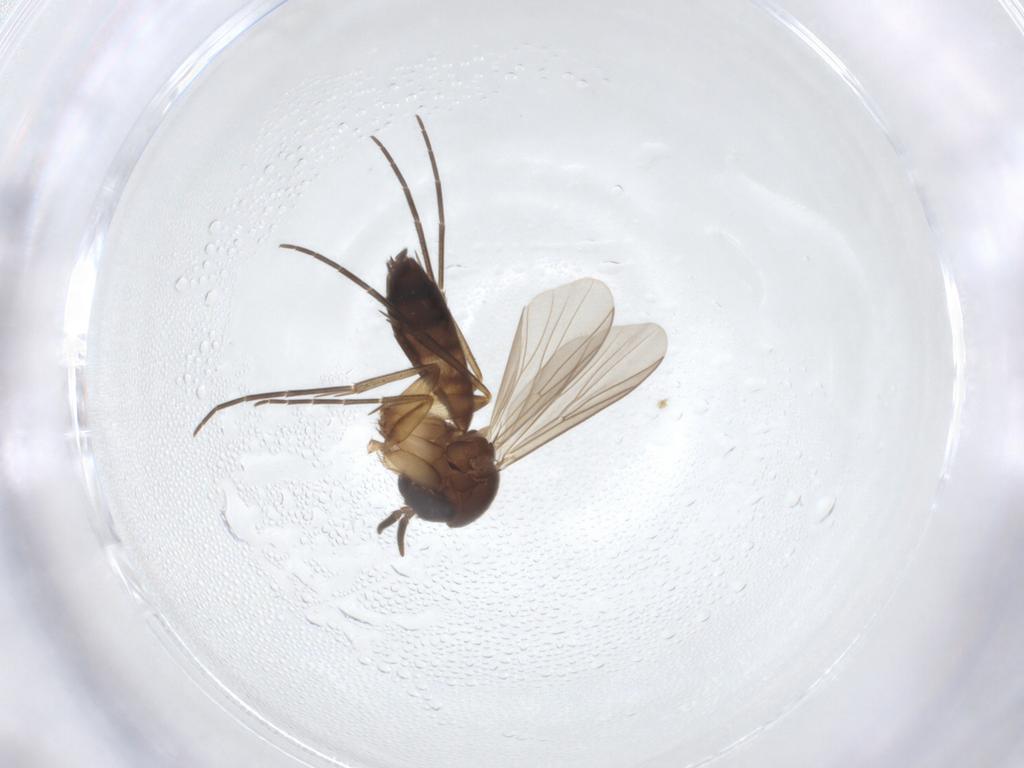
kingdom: Animalia
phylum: Arthropoda
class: Insecta
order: Diptera
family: Mycetophilidae
